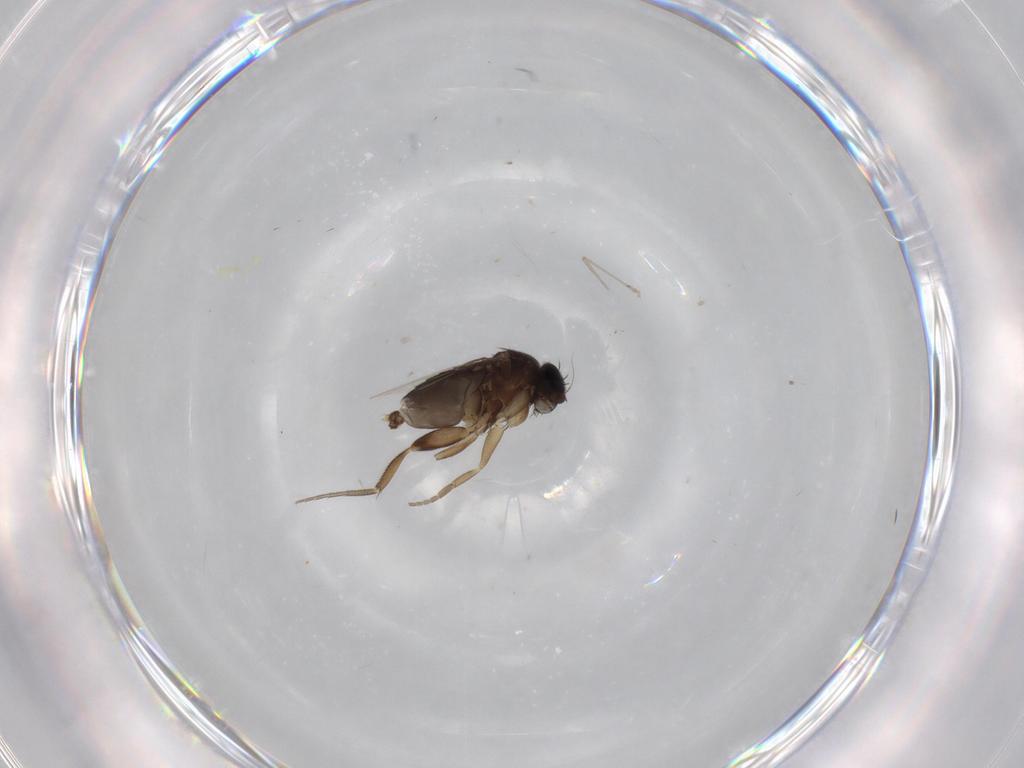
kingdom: Animalia
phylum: Arthropoda
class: Insecta
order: Diptera
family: Phoridae
